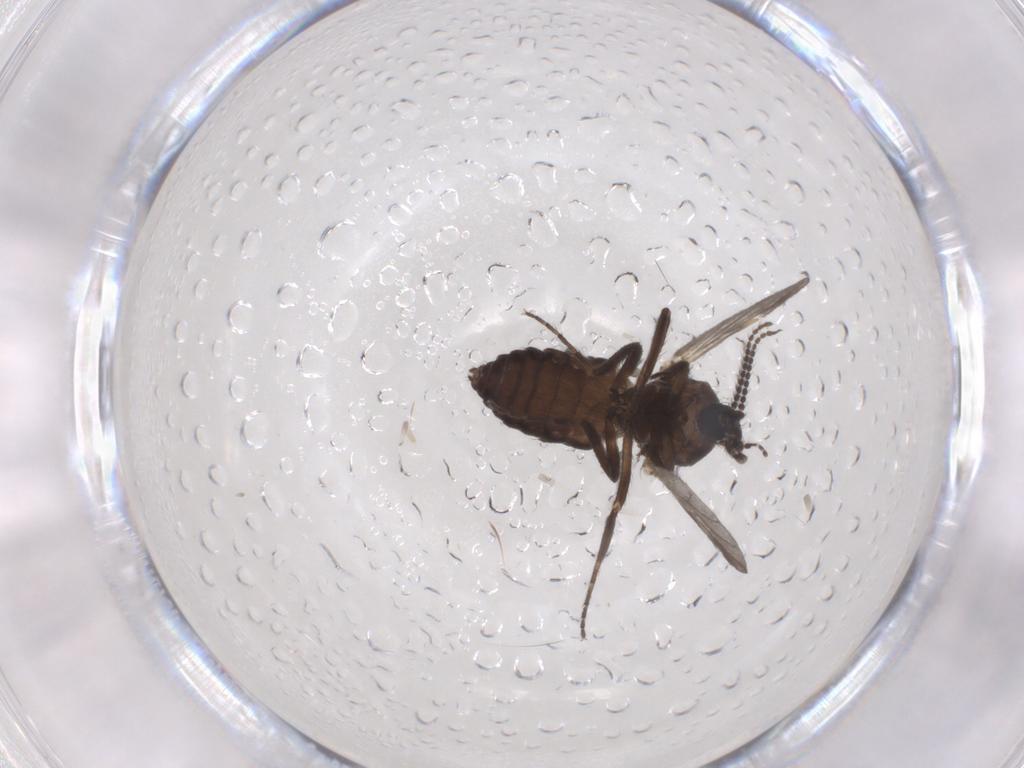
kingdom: Animalia
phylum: Arthropoda
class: Insecta
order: Diptera
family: Ceratopogonidae
